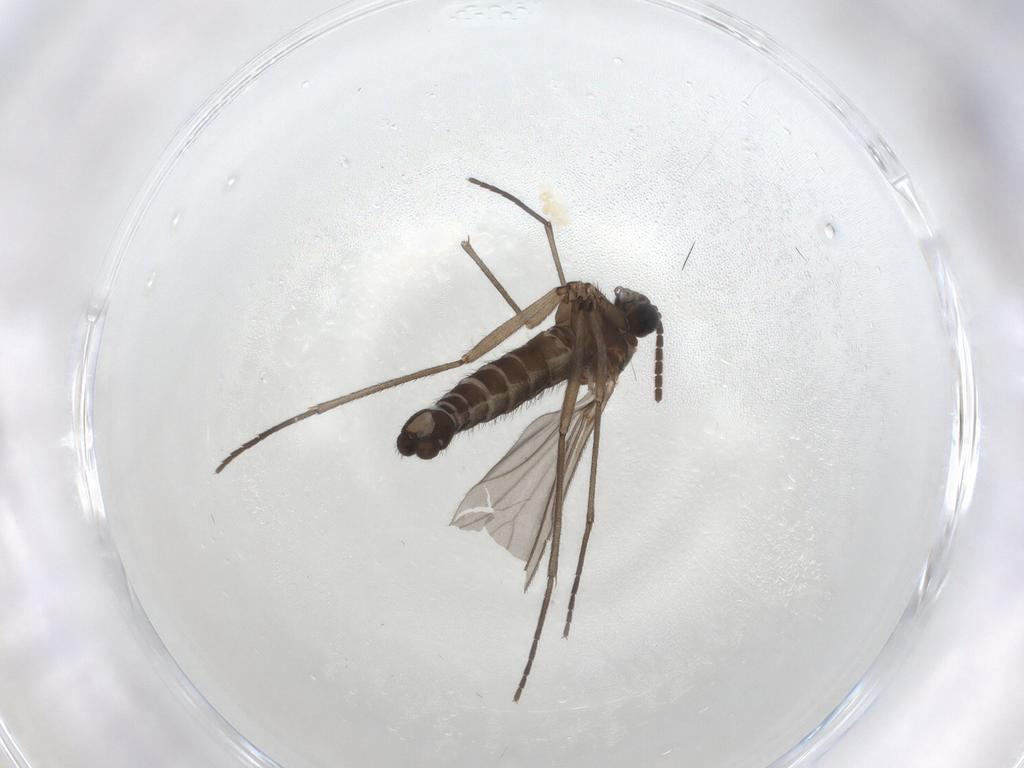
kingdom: Animalia
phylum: Arthropoda
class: Insecta
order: Diptera
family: Sciaridae
